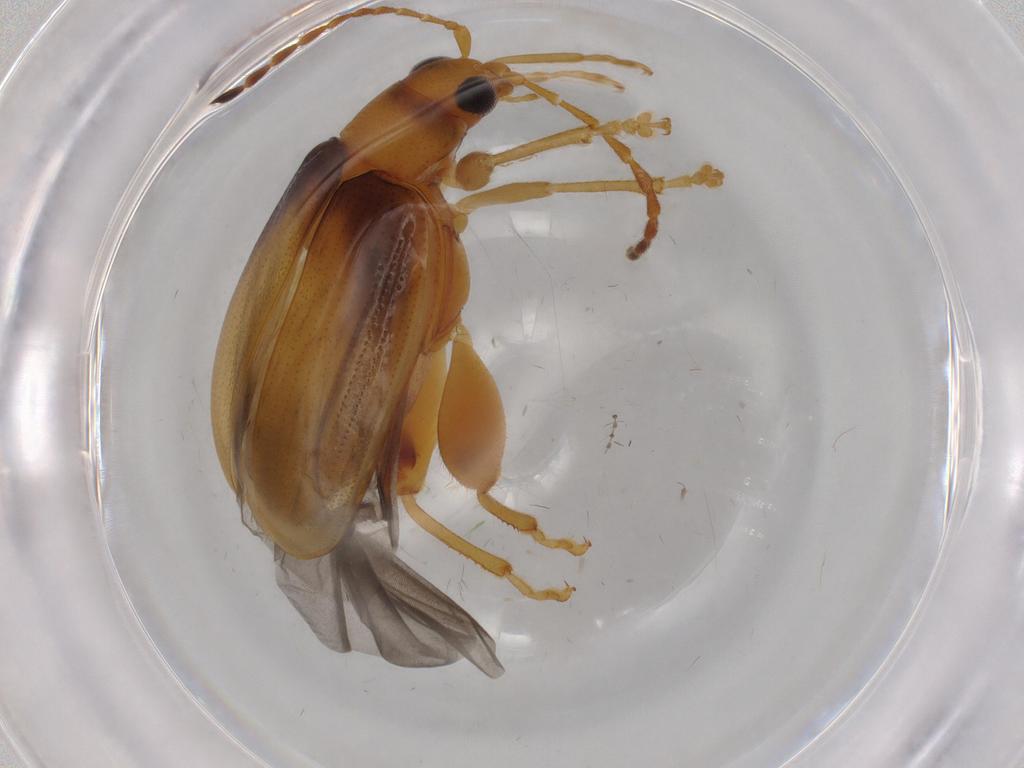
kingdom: Animalia
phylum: Arthropoda
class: Insecta
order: Coleoptera
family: Chrysomelidae
